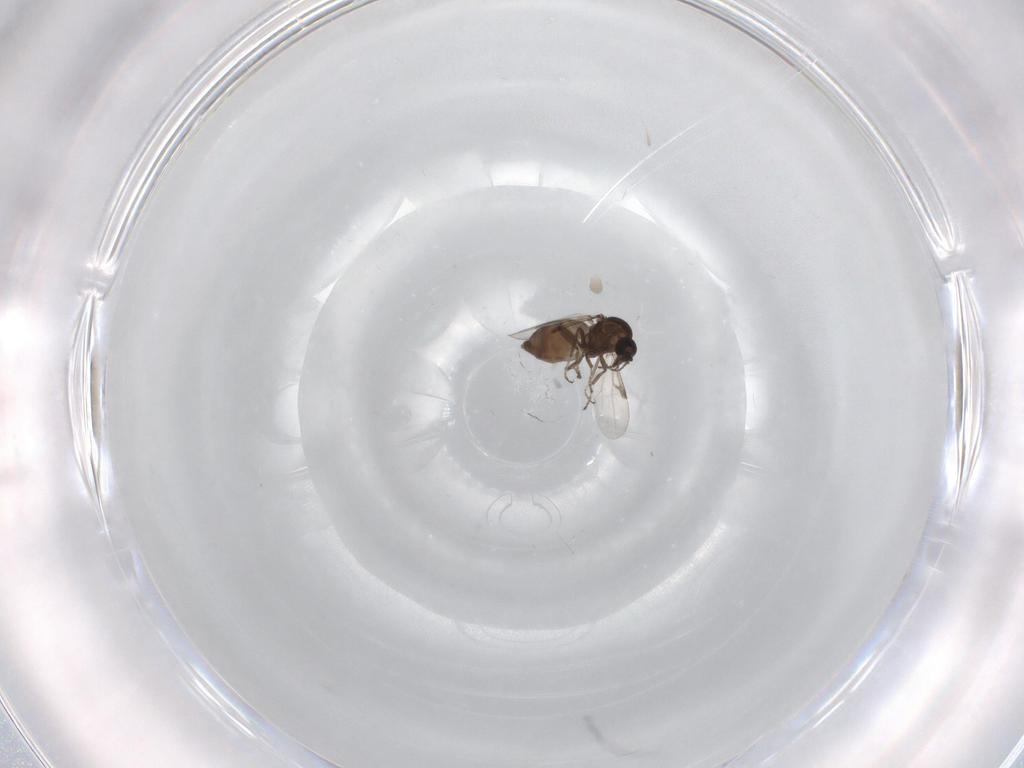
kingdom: Animalia
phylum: Arthropoda
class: Insecta
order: Diptera
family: Ceratopogonidae
